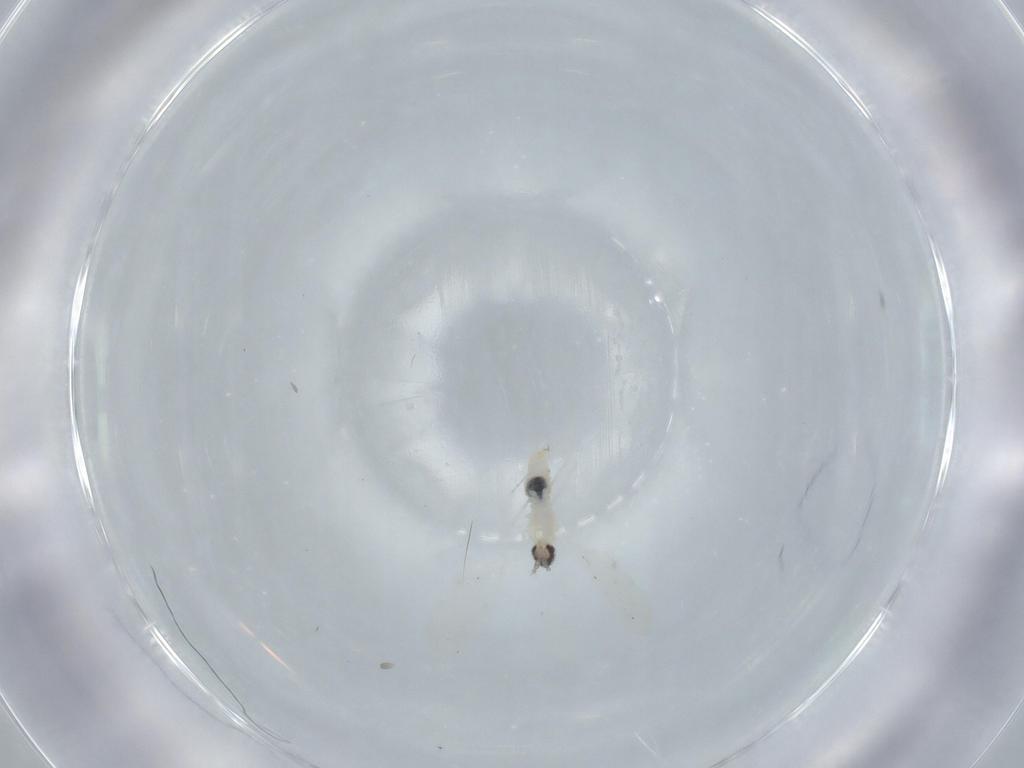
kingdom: Animalia
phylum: Arthropoda
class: Insecta
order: Diptera
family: Cecidomyiidae
